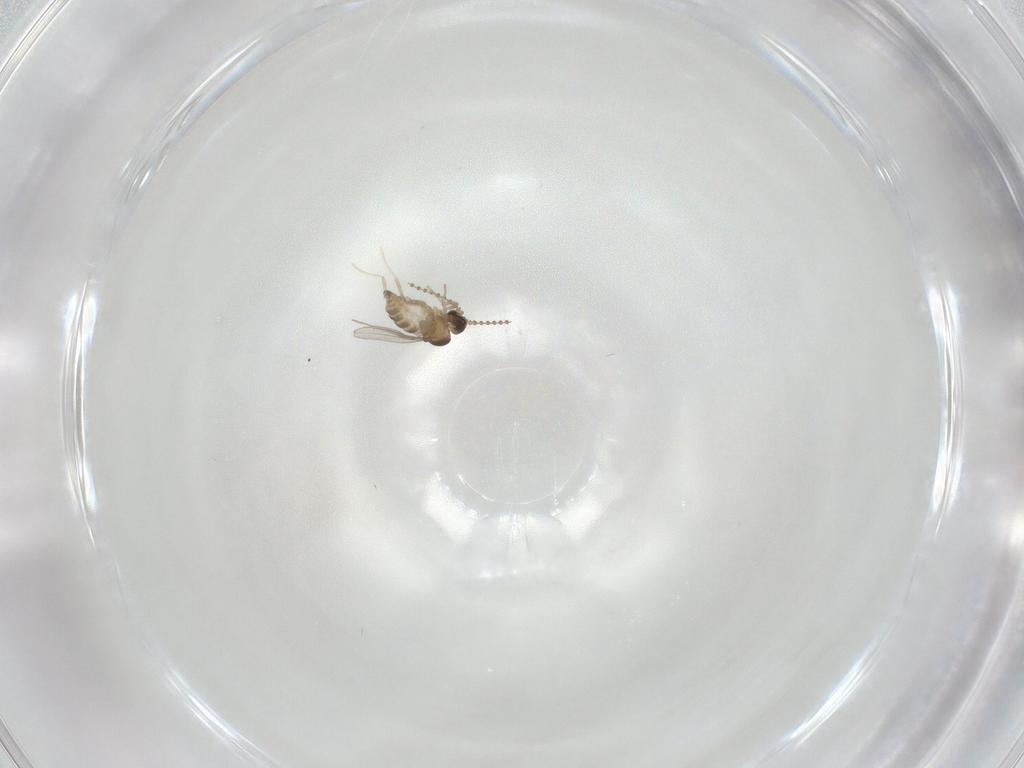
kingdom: Animalia
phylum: Arthropoda
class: Insecta
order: Diptera
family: Cecidomyiidae
